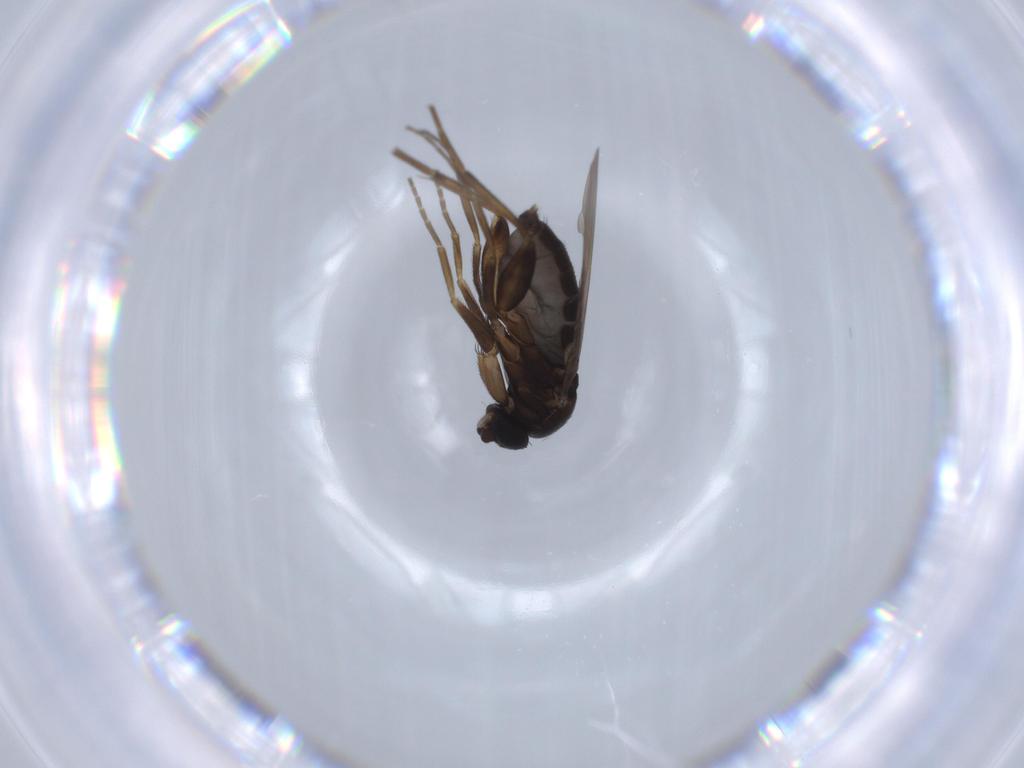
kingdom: Animalia
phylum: Arthropoda
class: Insecta
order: Diptera
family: Phoridae
